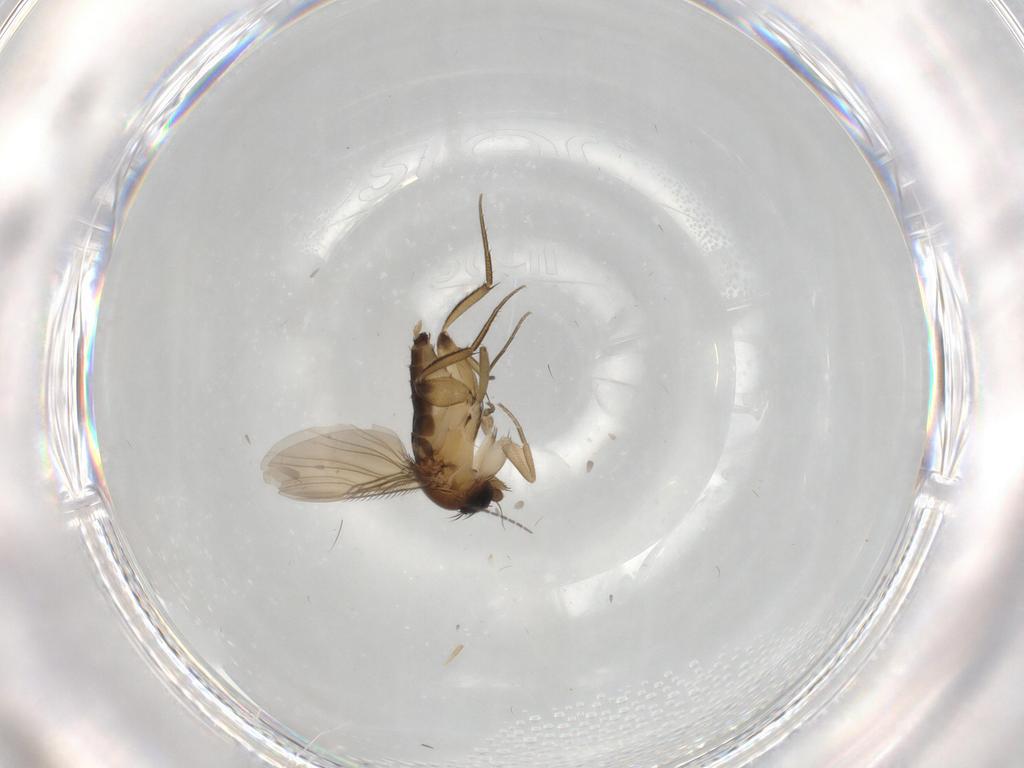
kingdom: Animalia
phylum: Arthropoda
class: Insecta
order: Diptera
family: Phoridae
